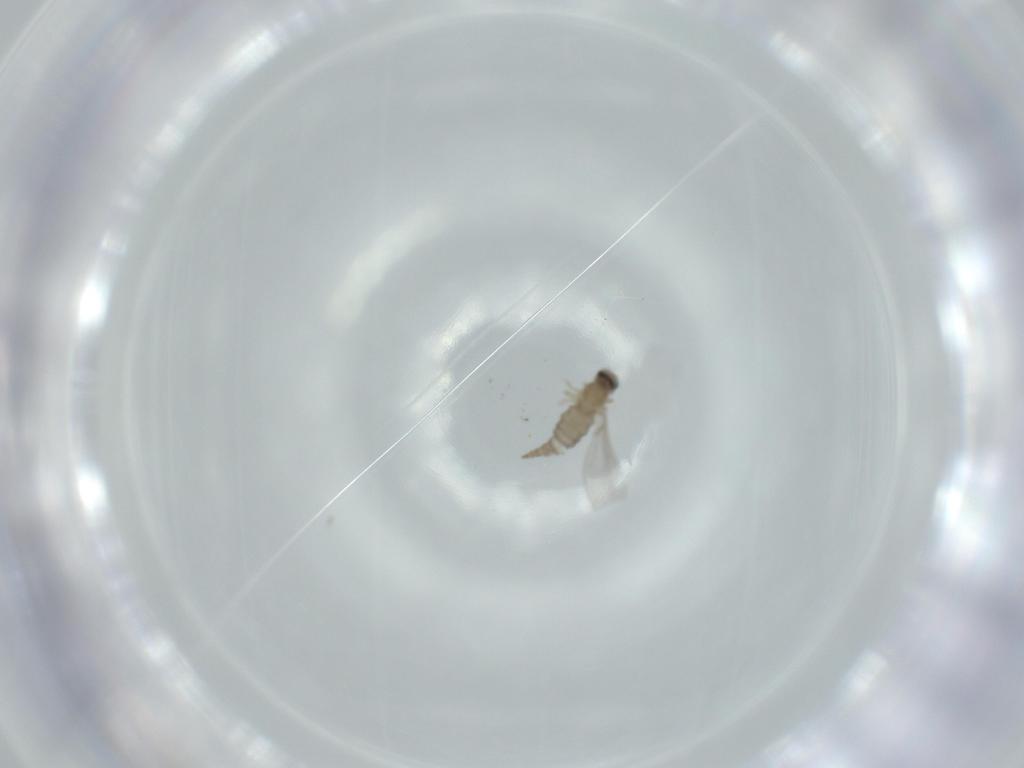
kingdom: Animalia
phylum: Arthropoda
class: Insecta
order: Diptera
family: Cecidomyiidae
